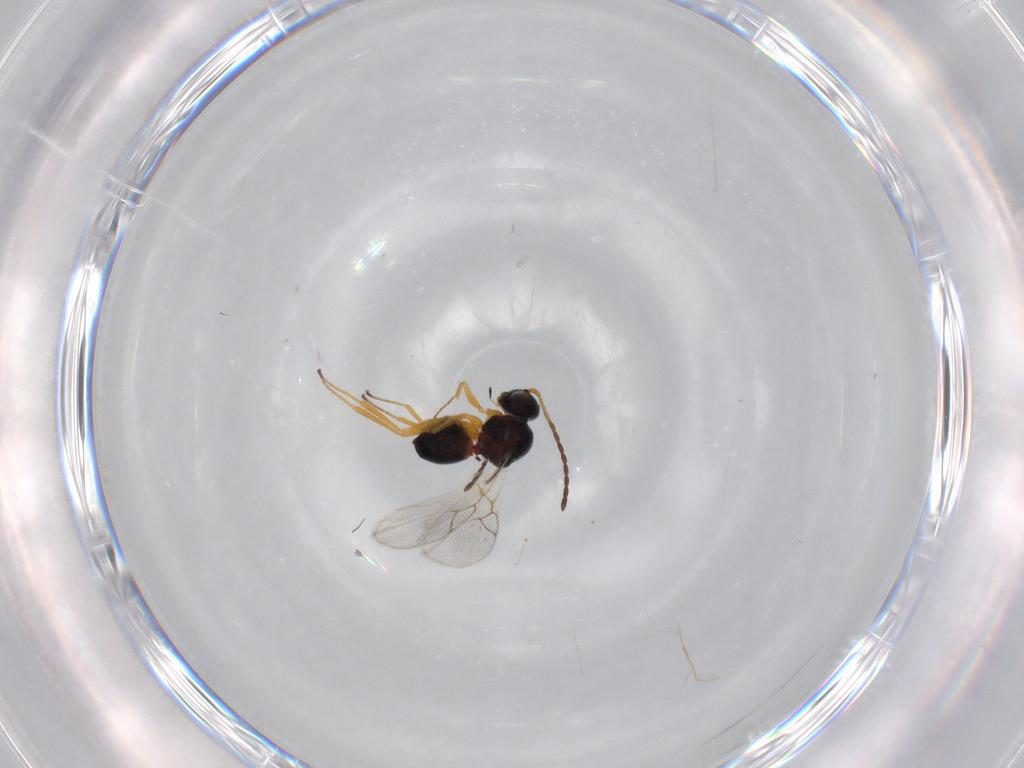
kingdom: Animalia
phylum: Arthropoda
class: Insecta
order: Hymenoptera
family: Figitidae
